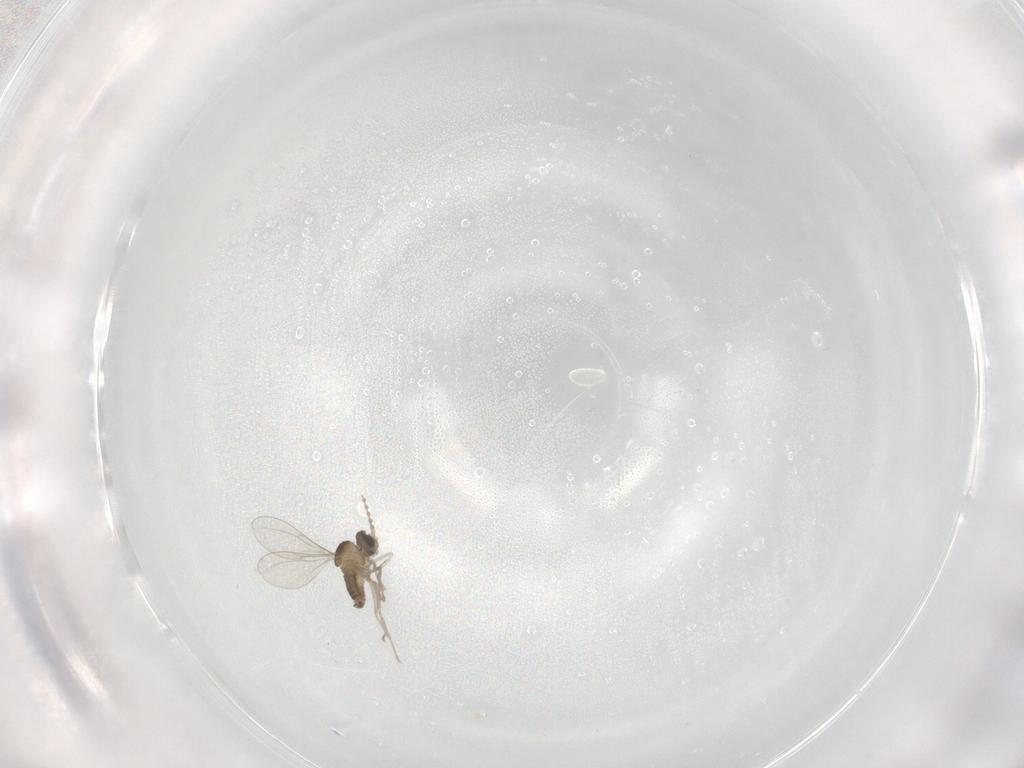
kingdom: Animalia
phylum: Arthropoda
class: Insecta
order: Diptera
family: Cecidomyiidae
